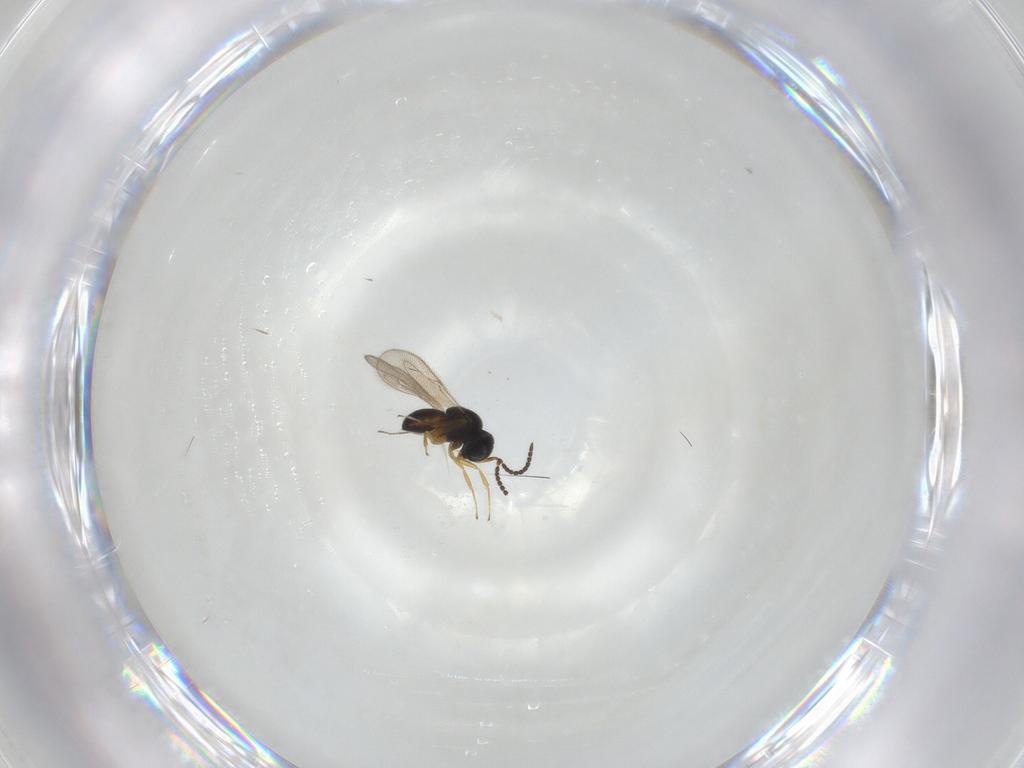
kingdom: Animalia
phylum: Arthropoda
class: Insecta
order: Hymenoptera
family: Scelionidae
